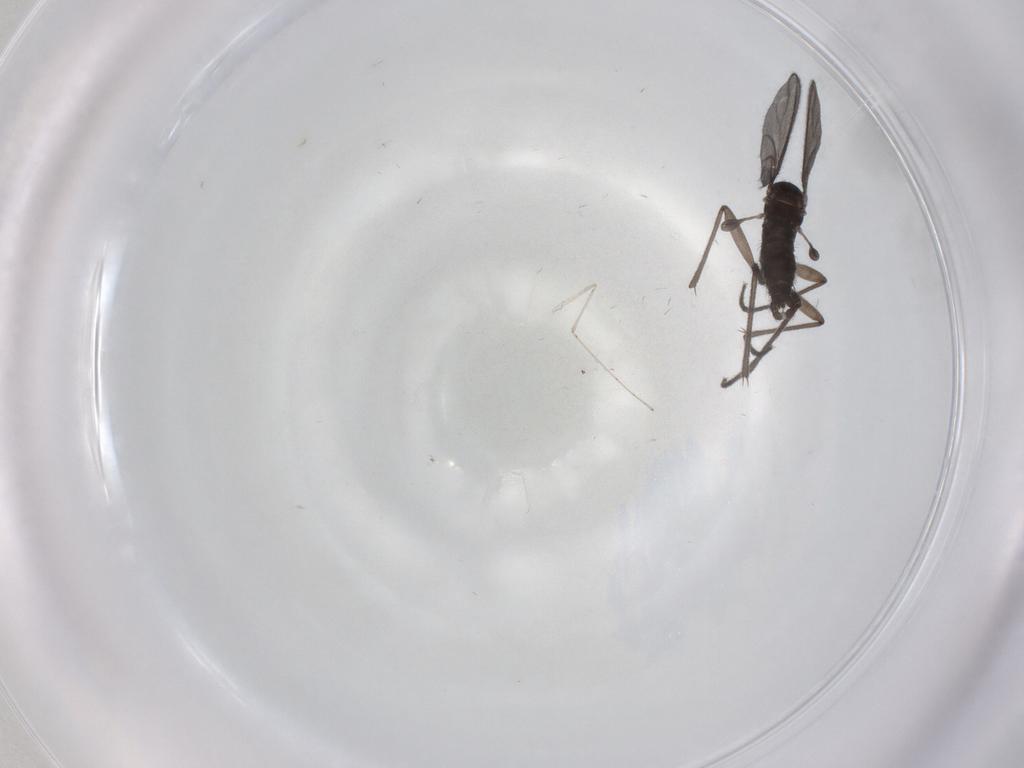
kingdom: Animalia
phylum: Arthropoda
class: Insecta
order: Diptera
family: Sciaridae
